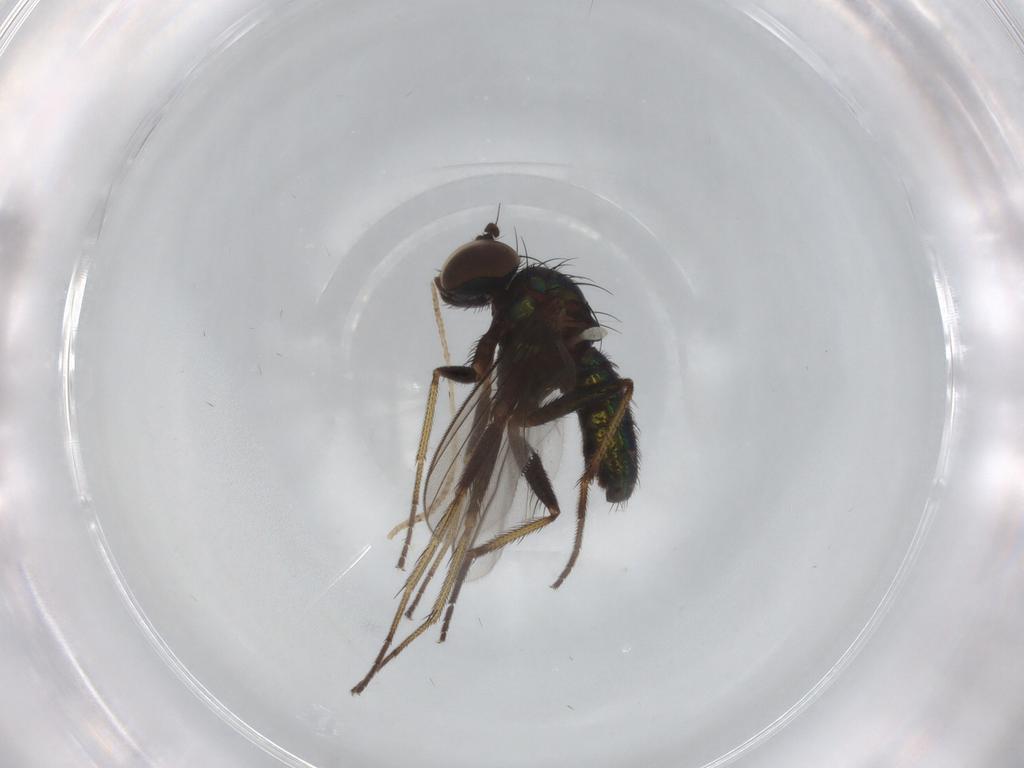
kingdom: Animalia
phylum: Arthropoda
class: Insecta
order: Diptera
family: Dolichopodidae
